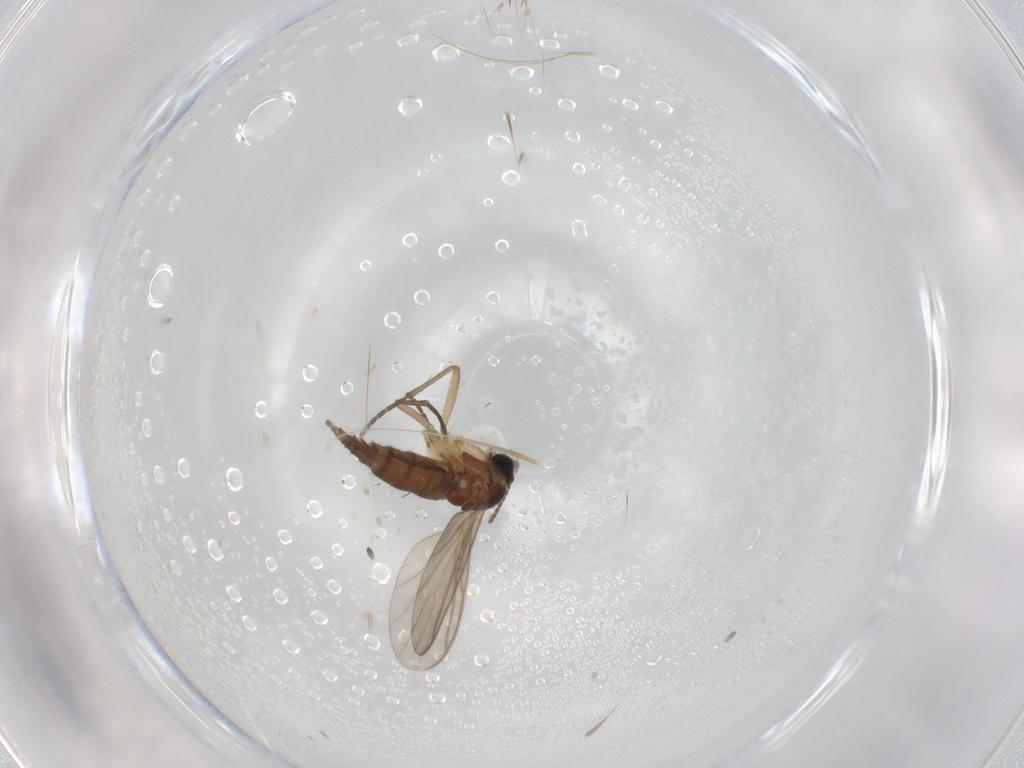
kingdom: Animalia
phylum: Arthropoda
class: Insecta
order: Diptera
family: Sciaridae
